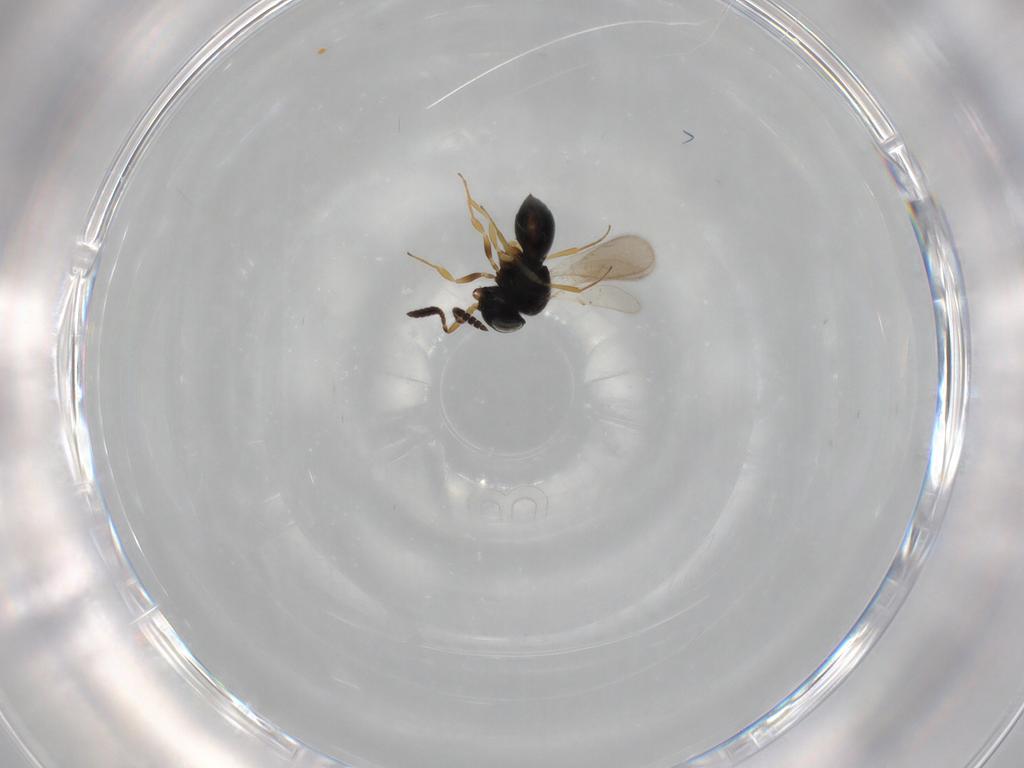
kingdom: Animalia
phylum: Arthropoda
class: Insecta
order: Hymenoptera
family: Scelionidae
